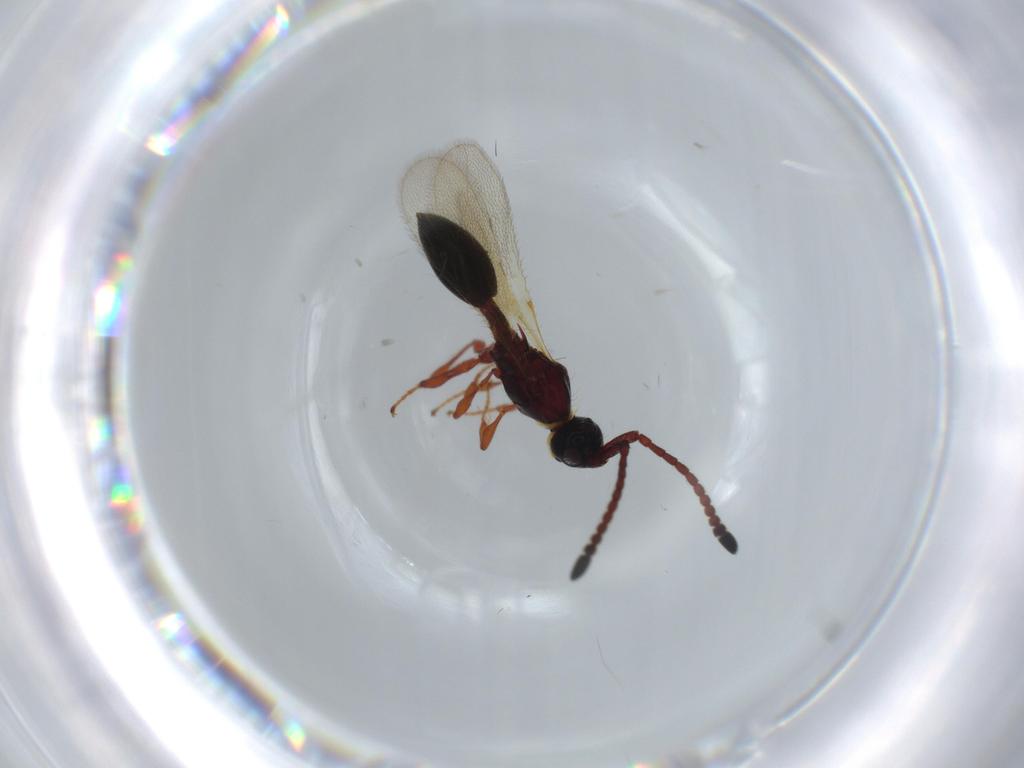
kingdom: Animalia
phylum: Arthropoda
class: Insecta
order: Hymenoptera
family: Diapriidae
